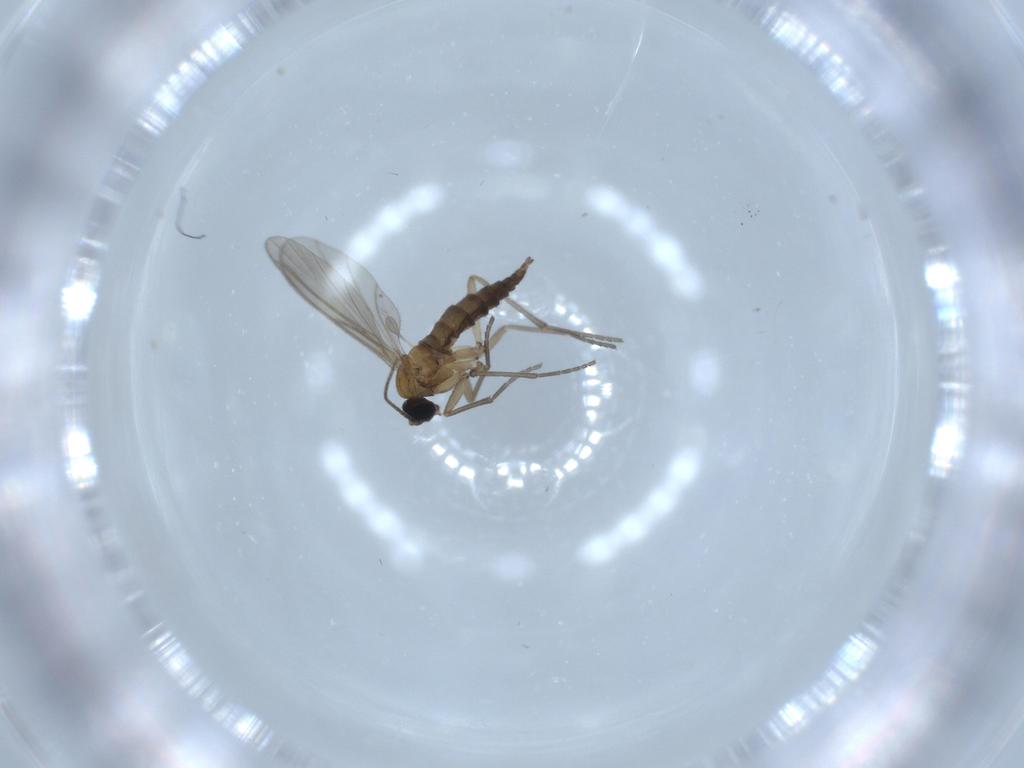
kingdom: Animalia
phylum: Arthropoda
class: Insecta
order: Diptera
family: Sciaridae
